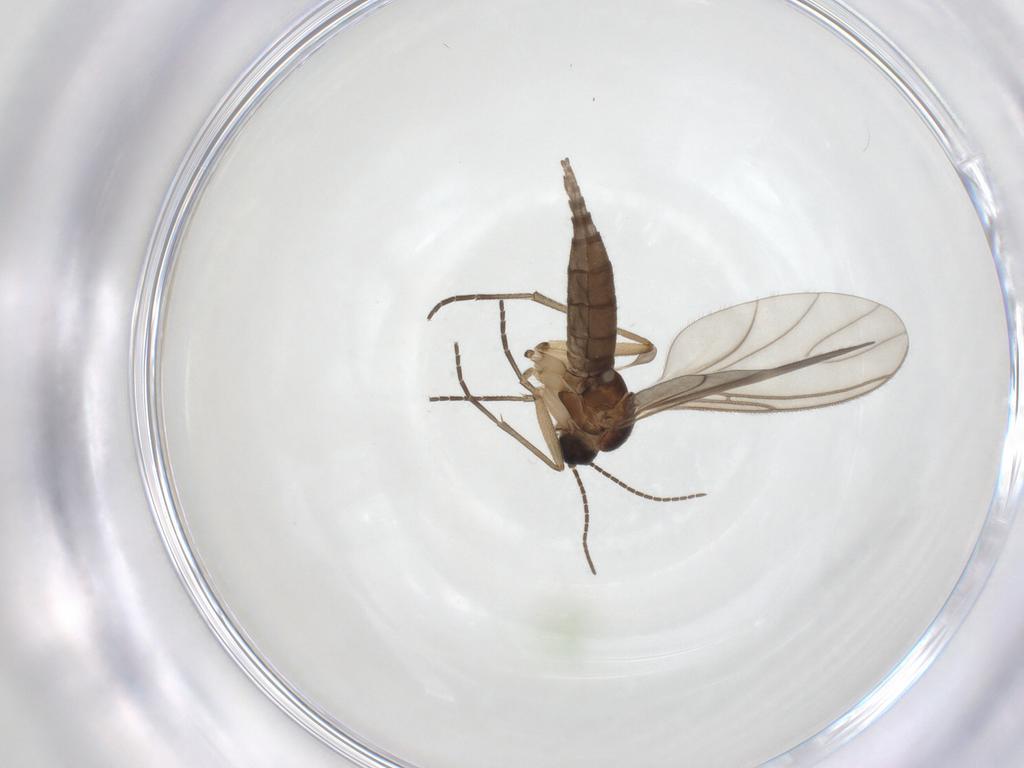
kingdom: Animalia
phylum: Arthropoda
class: Insecta
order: Diptera
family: Sciaridae
